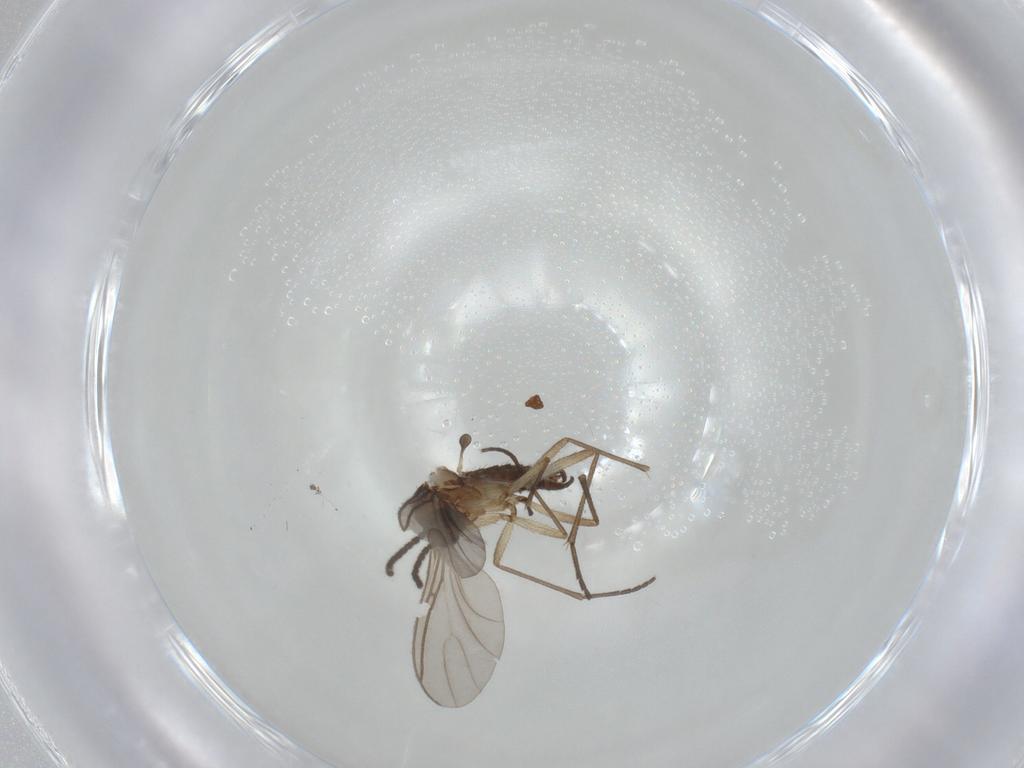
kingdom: Animalia
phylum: Arthropoda
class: Insecta
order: Diptera
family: Sciaridae
